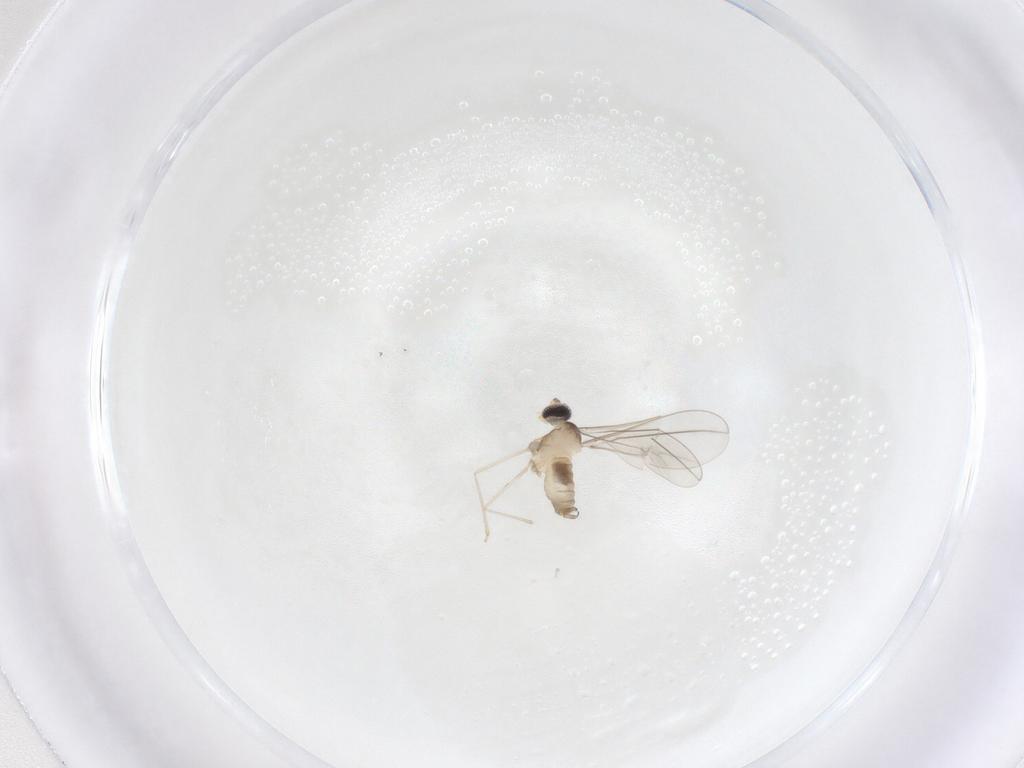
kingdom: Animalia
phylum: Arthropoda
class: Insecta
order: Diptera
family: Cecidomyiidae
